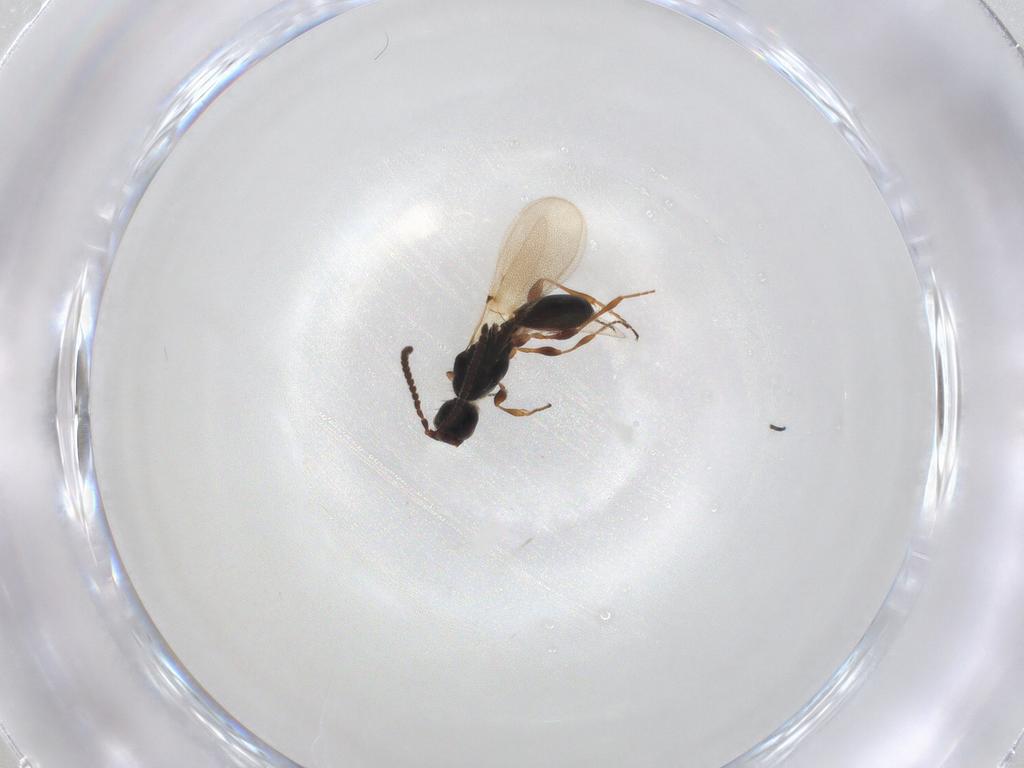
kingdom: Animalia
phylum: Arthropoda
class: Insecta
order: Hymenoptera
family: Diapriidae
